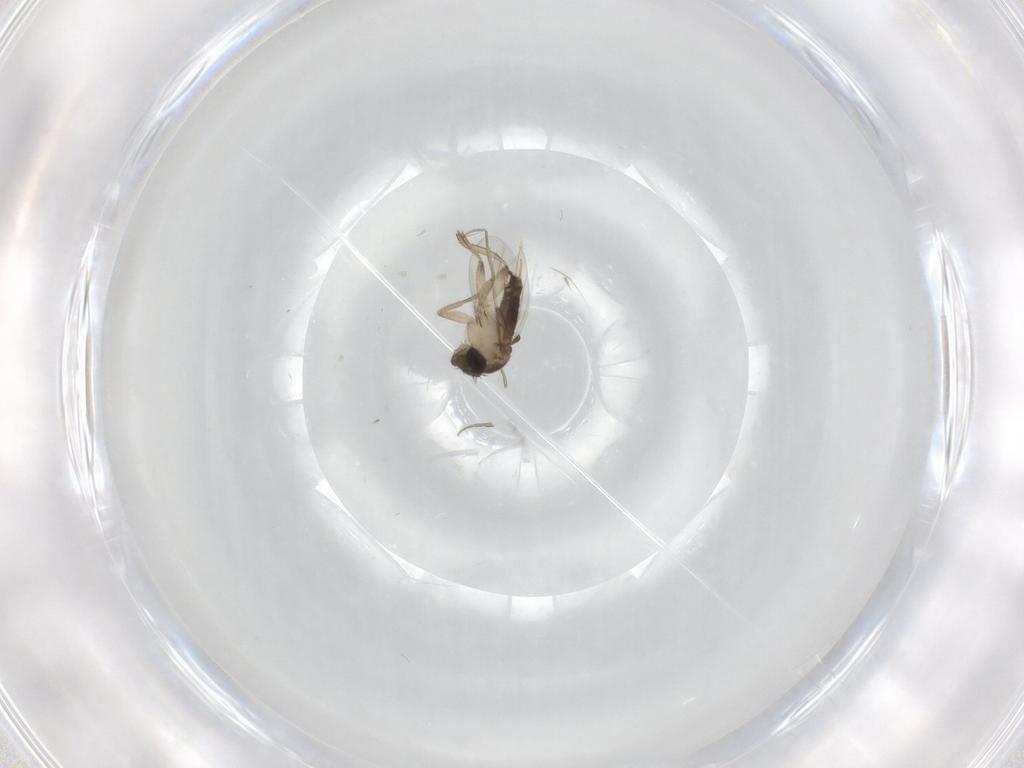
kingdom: Animalia
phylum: Arthropoda
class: Insecta
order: Diptera
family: Phoridae
